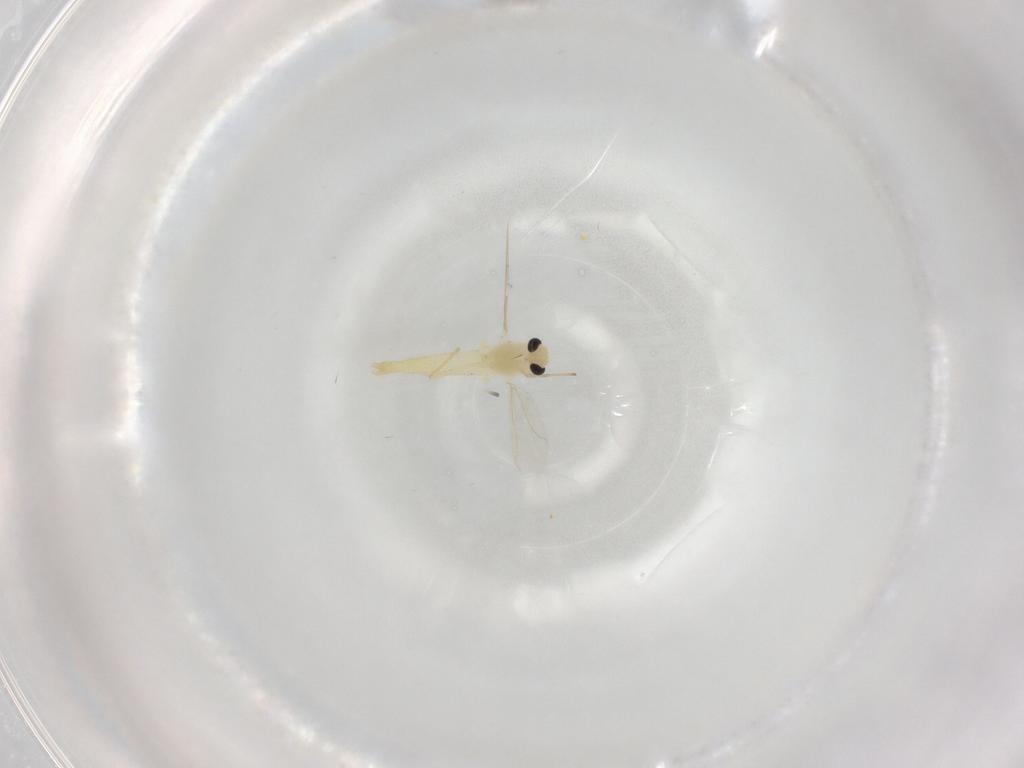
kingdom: Animalia
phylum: Arthropoda
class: Insecta
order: Diptera
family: Chironomidae
